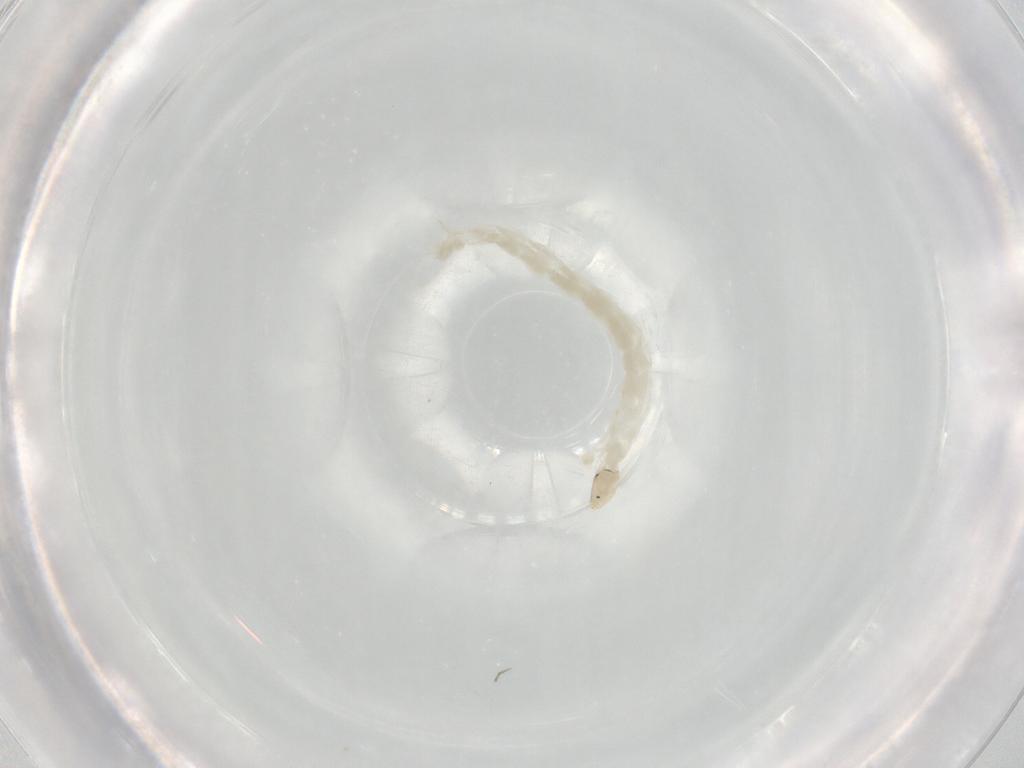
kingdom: Animalia
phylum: Arthropoda
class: Insecta
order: Diptera
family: Chironomidae
